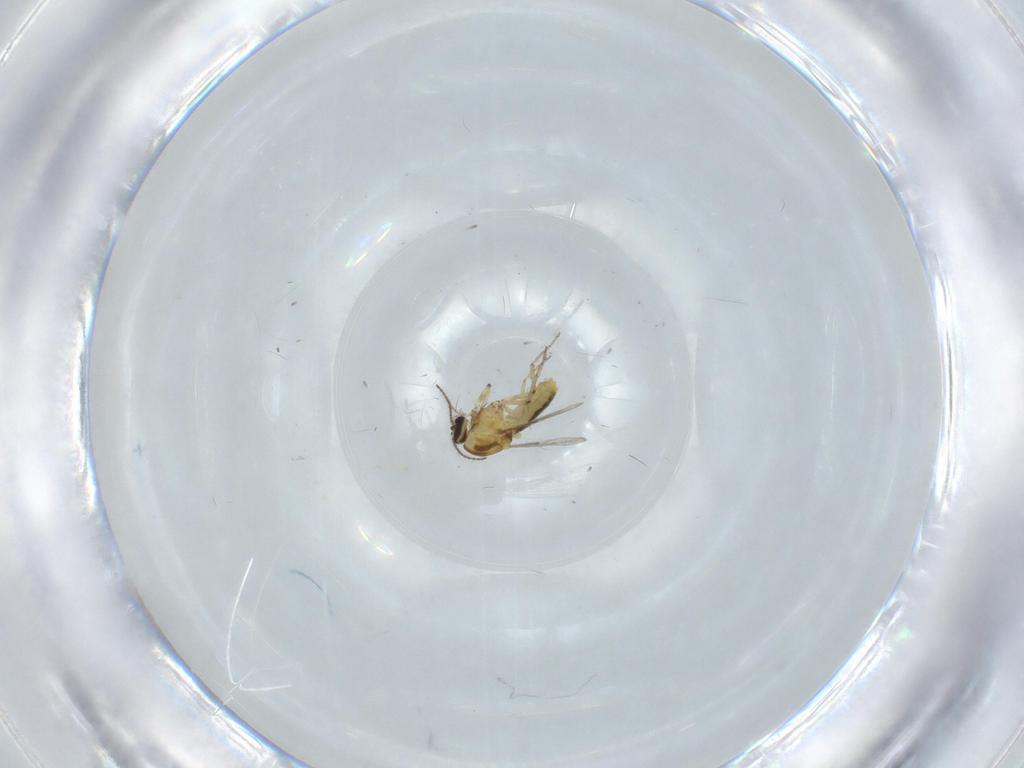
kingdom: Animalia
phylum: Arthropoda
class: Insecta
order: Diptera
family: Ceratopogonidae
